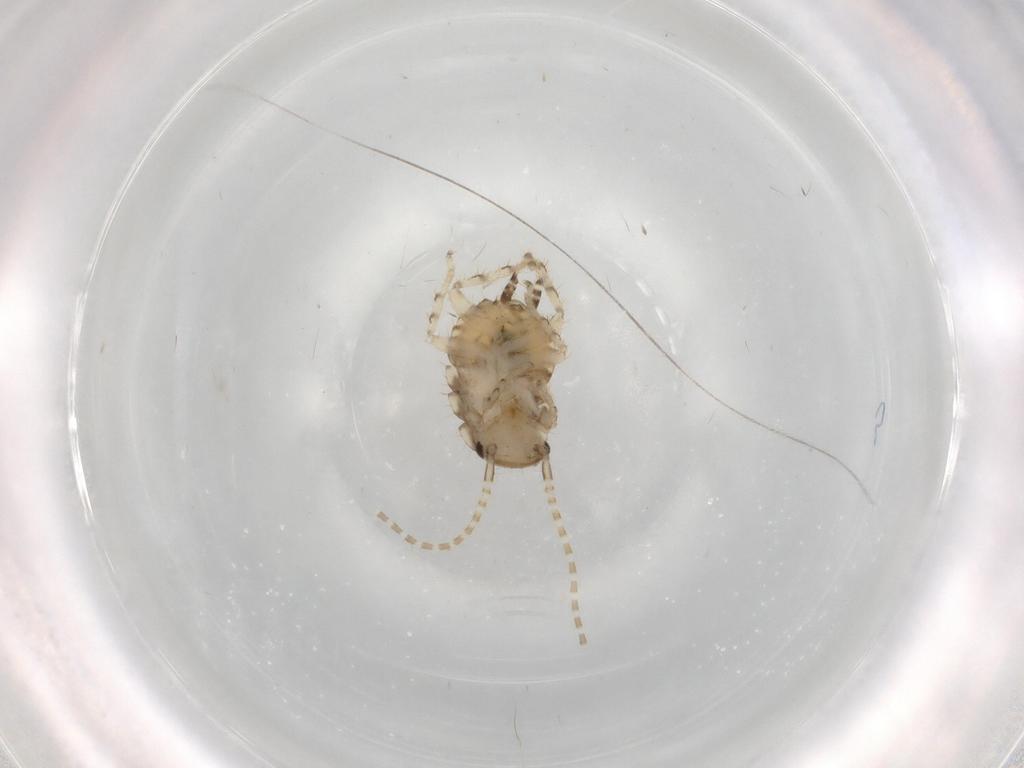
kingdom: Animalia
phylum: Arthropoda
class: Insecta
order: Blattodea
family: Ectobiidae
